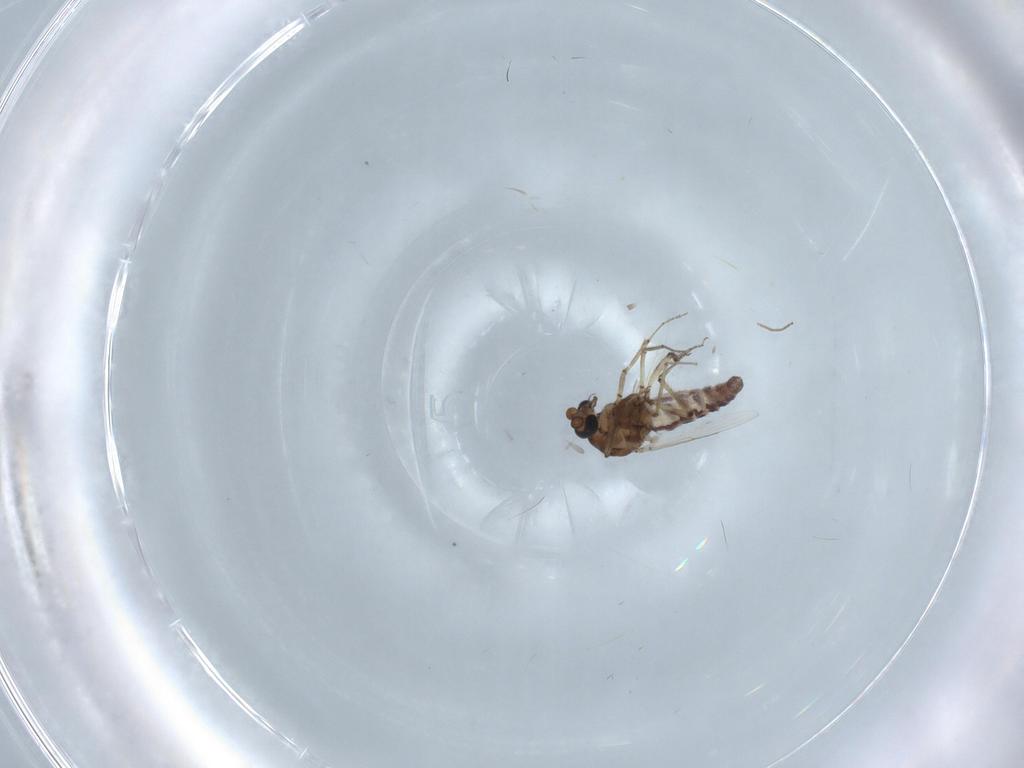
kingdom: Animalia
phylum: Arthropoda
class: Insecta
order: Diptera
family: Ceratopogonidae
